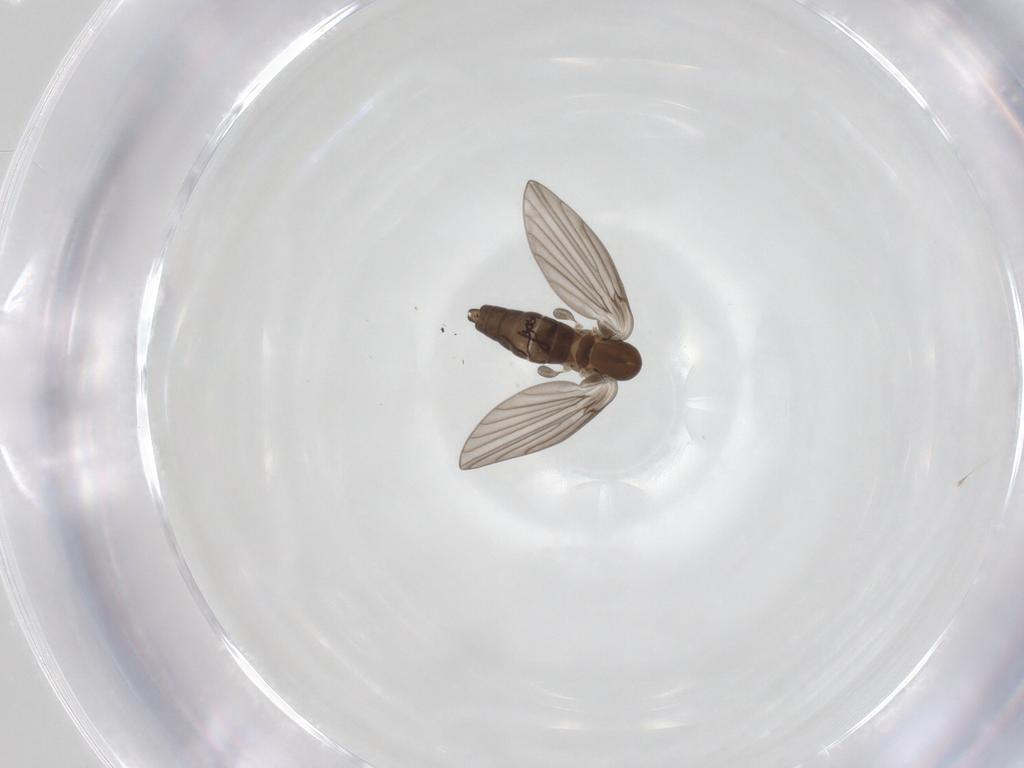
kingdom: Animalia
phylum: Arthropoda
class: Insecta
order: Diptera
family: Psychodidae
